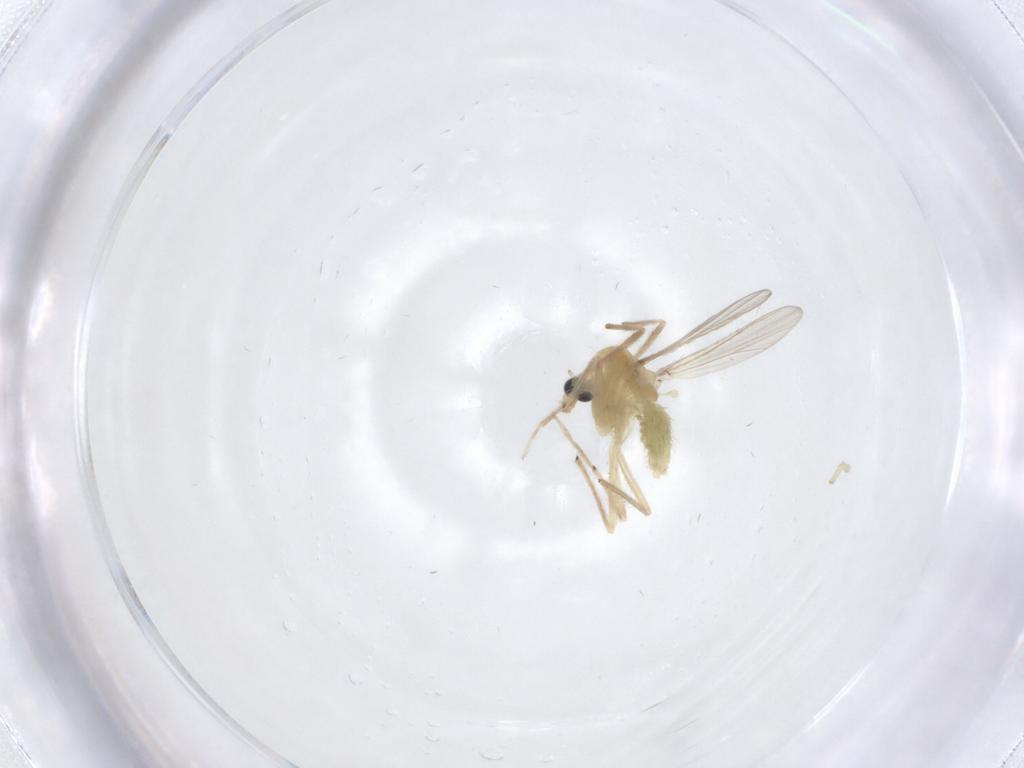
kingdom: Animalia
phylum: Arthropoda
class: Insecta
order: Diptera
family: Chironomidae
